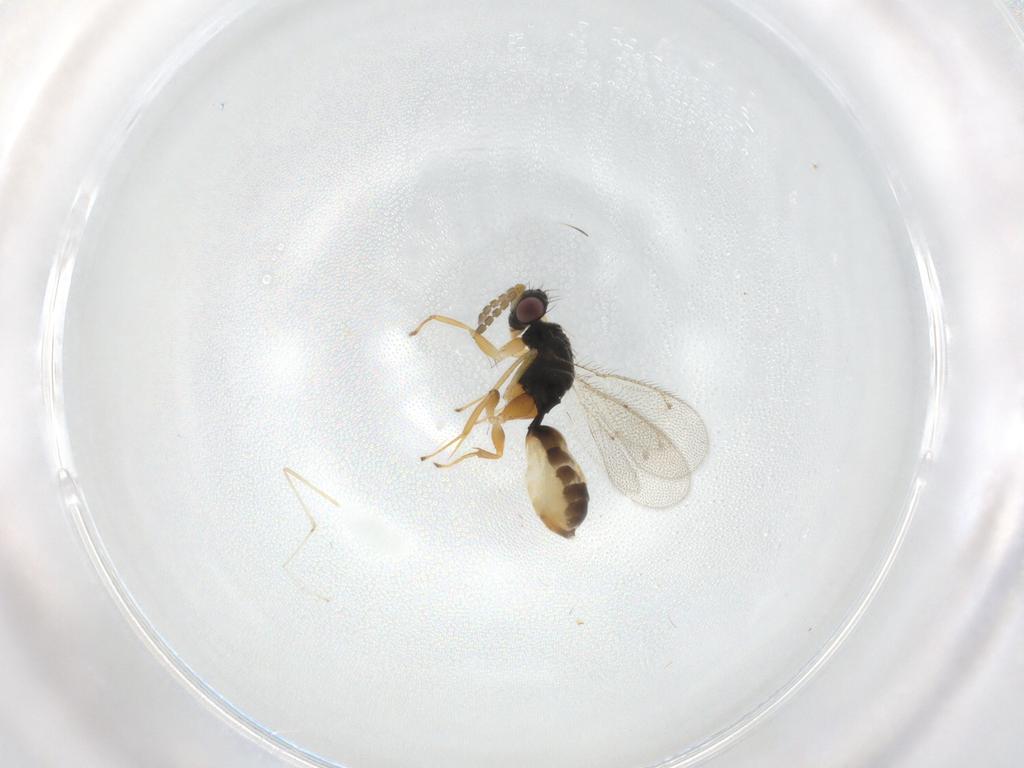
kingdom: Animalia
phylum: Arthropoda
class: Insecta
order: Hymenoptera
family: Eulophidae
